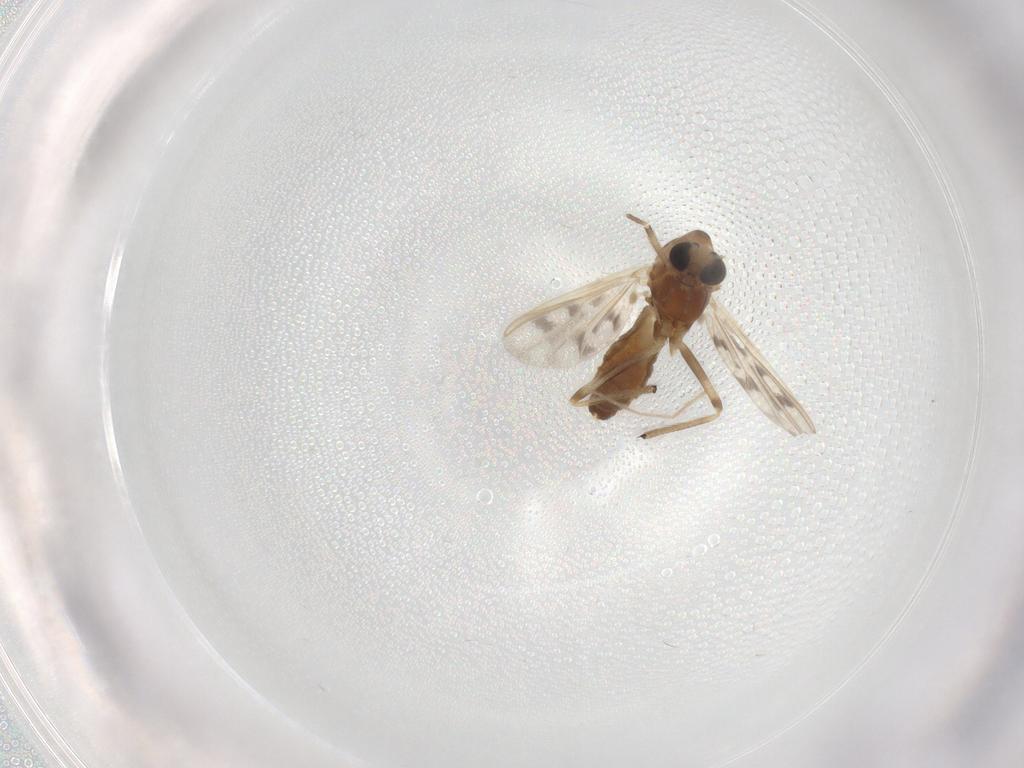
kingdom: Animalia
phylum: Arthropoda
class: Insecta
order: Diptera
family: Chironomidae
